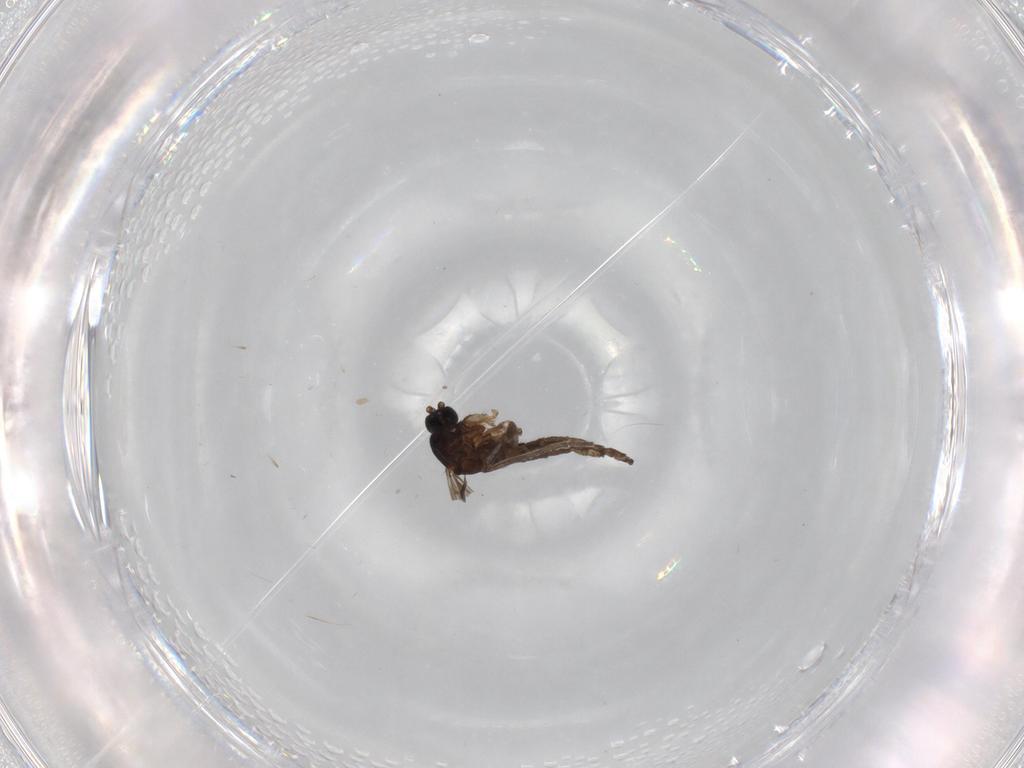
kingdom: Animalia
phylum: Arthropoda
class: Insecta
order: Diptera
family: Sciaridae
